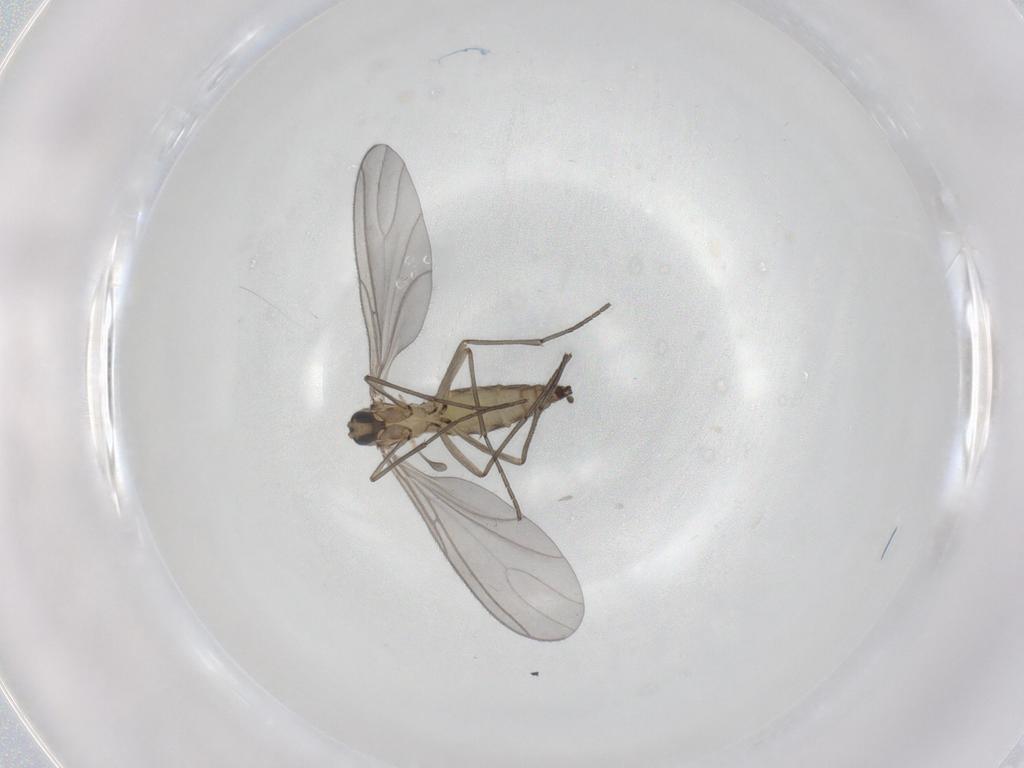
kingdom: Animalia
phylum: Arthropoda
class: Insecta
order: Diptera
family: Sciaridae
